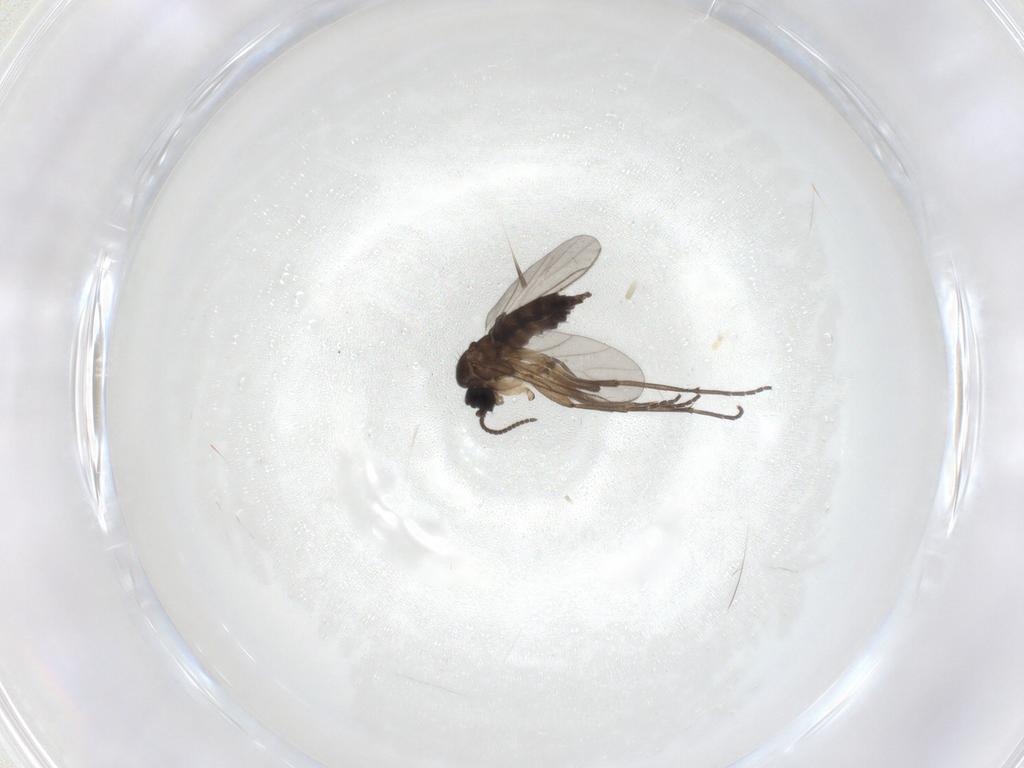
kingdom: Animalia
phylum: Arthropoda
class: Insecta
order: Diptera
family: Sciaridae
